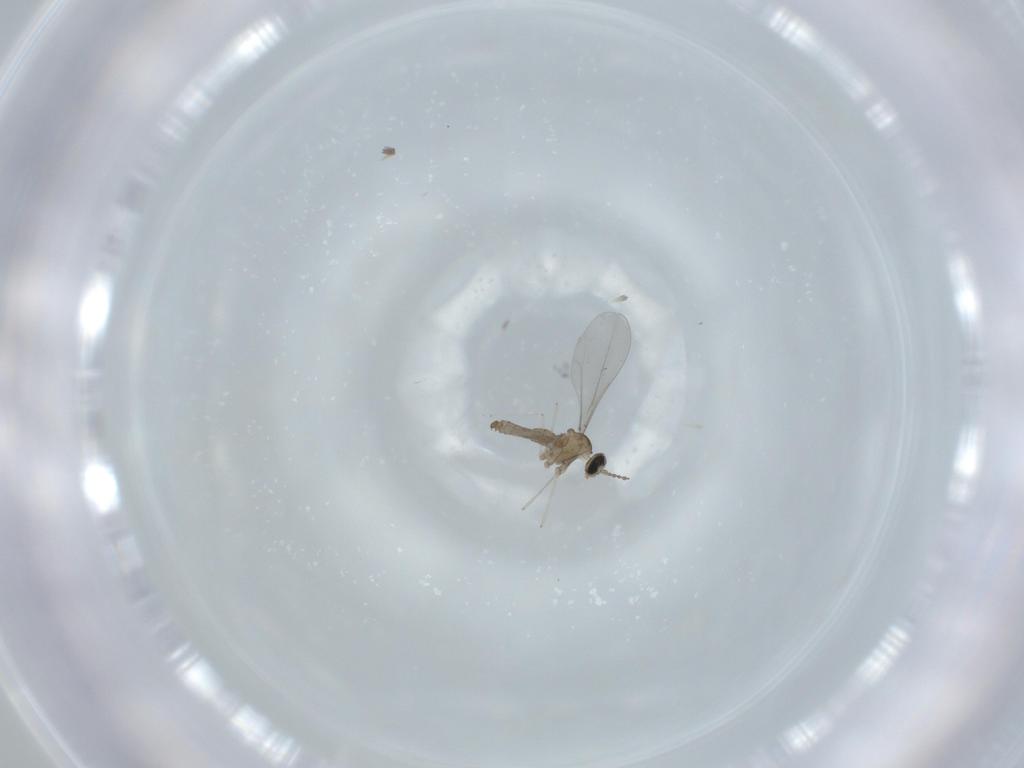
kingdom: Animalia
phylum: Arthropoda
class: Insecta
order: Diptera
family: Cecidomyiidae
